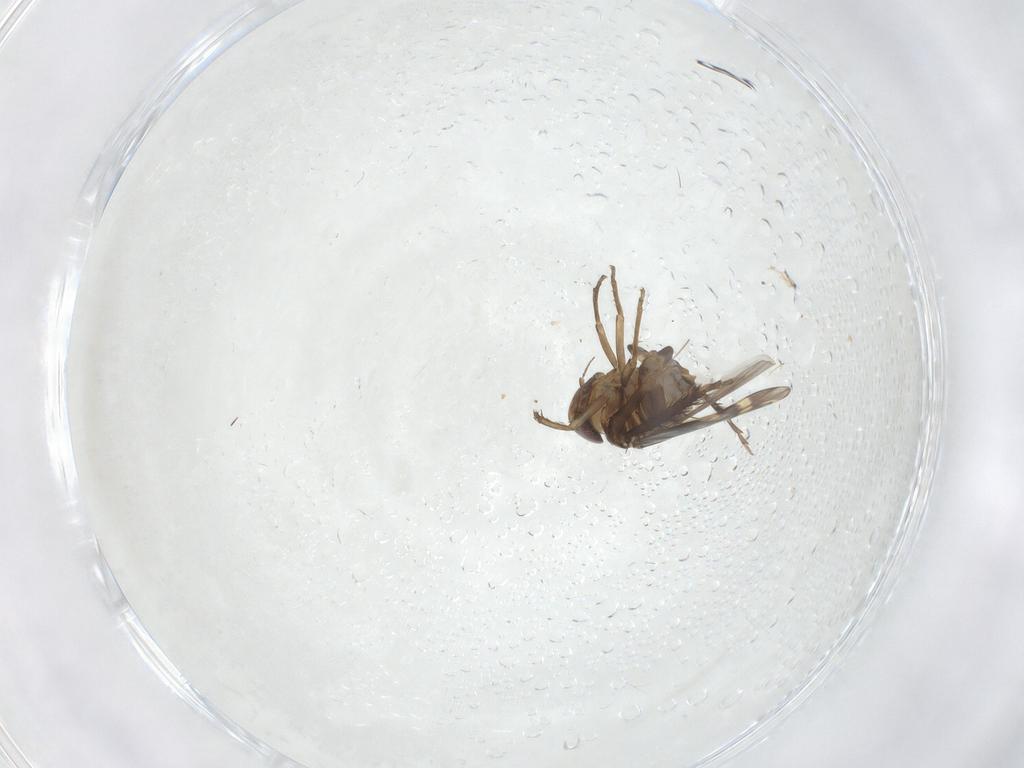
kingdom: Animalia
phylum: Arthropoda
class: Insecta
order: Hemiptera
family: Cicadellidae
